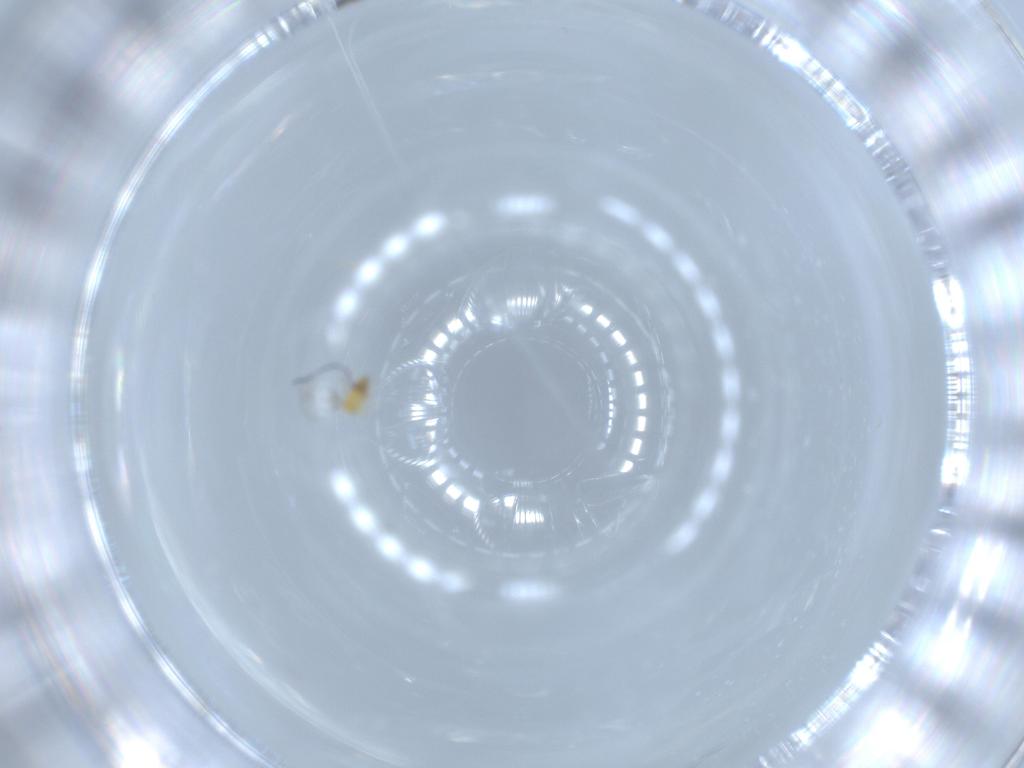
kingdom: Animalia
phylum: Arthropoda
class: Insecta
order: Hymenoptera
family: Trichogrammatidae
